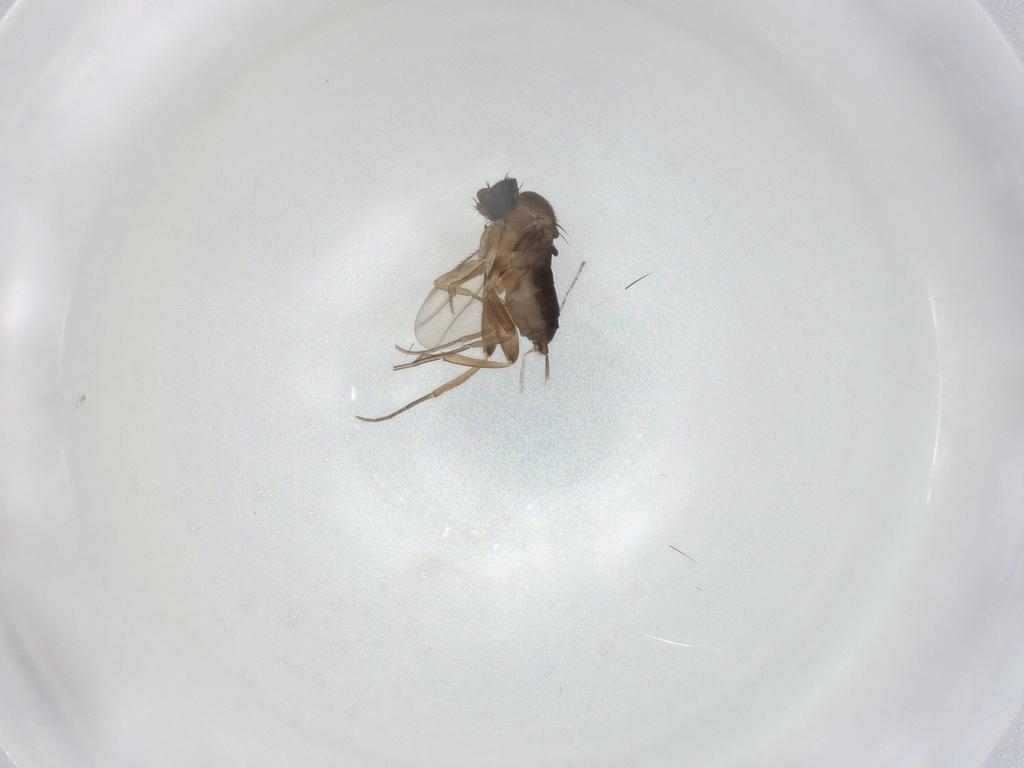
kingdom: Animalia
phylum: Arthropoda
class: Insecta
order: Diptera
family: Cecidomyiidae
